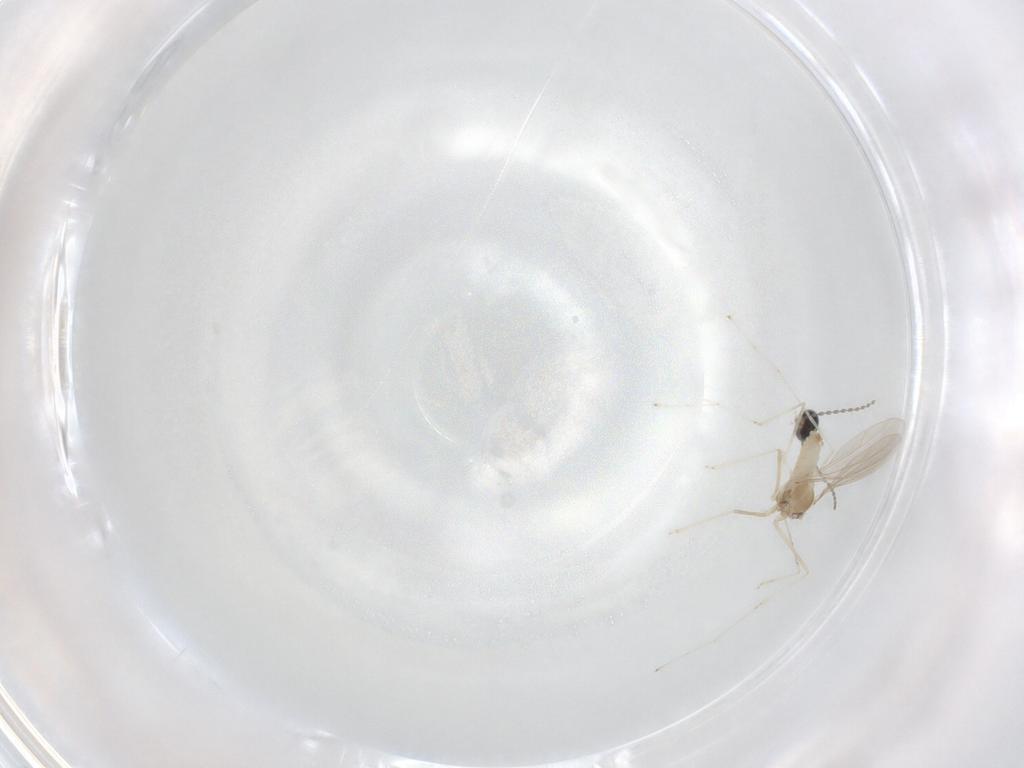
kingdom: Animalia
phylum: Arthropoda
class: Insecta
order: Diptera
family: Cecidomyiidae
